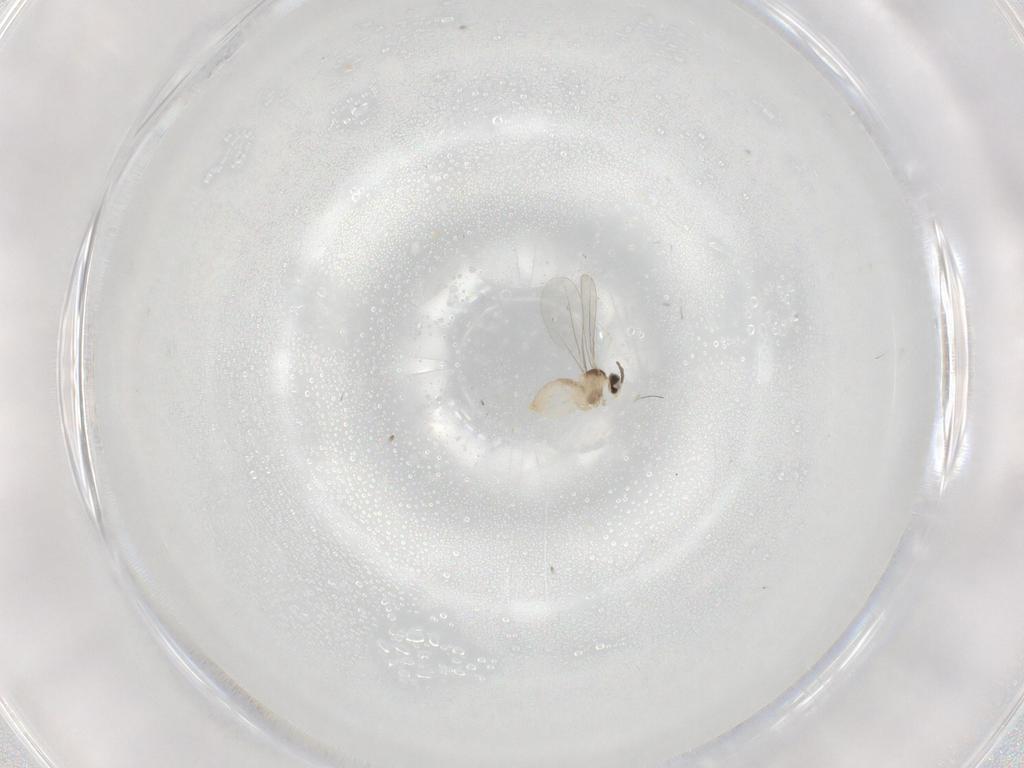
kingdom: Animalia
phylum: Arthropoda
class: Insecta
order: Diptera
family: Cecidomyiidae
